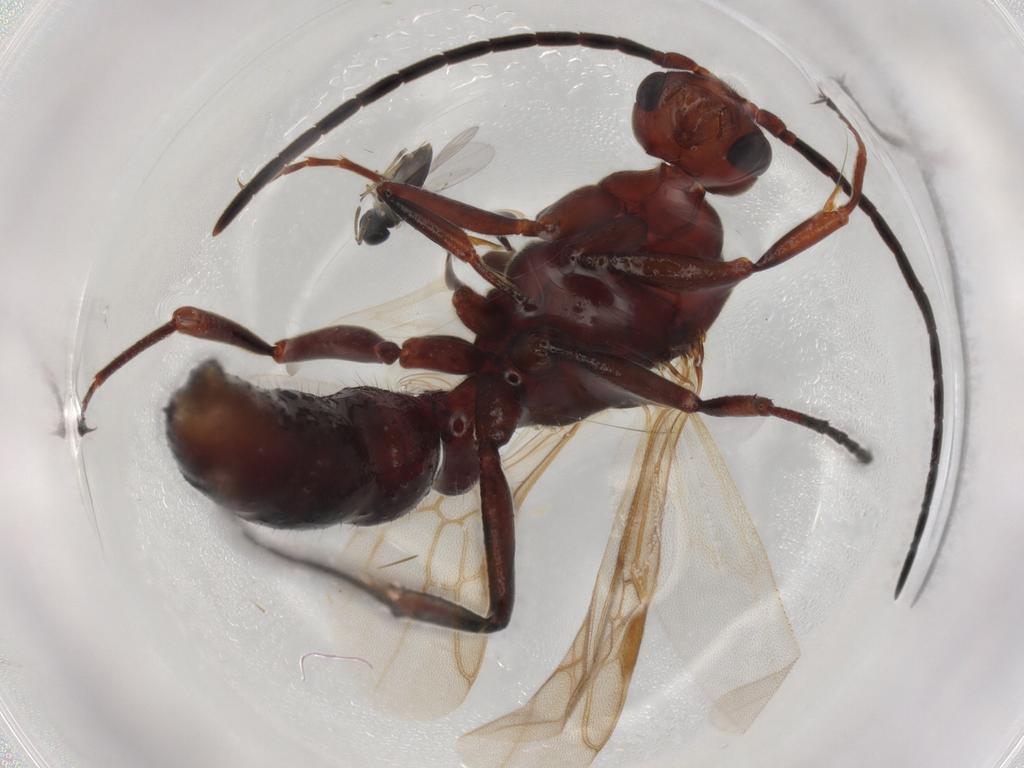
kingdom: Animalia
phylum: Arthropoda
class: Insecta
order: Hymenoptera
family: Formicidae
